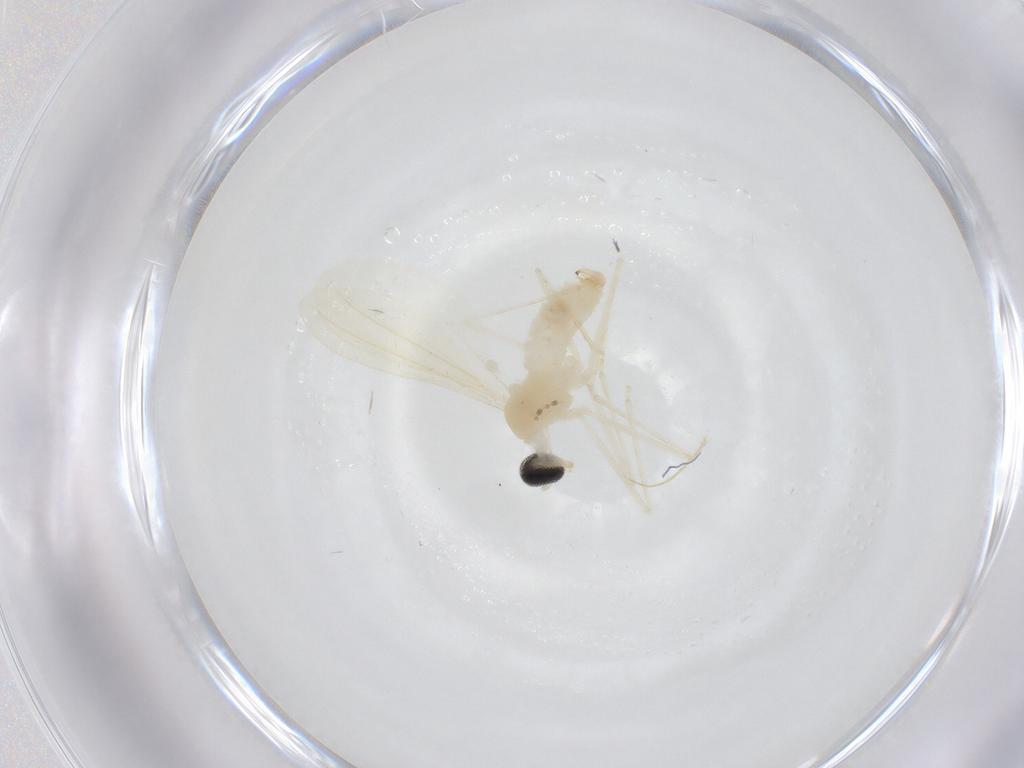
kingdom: Animalia
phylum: Arthropoda
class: Insecta
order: Diptera
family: Cecidomyiidae
